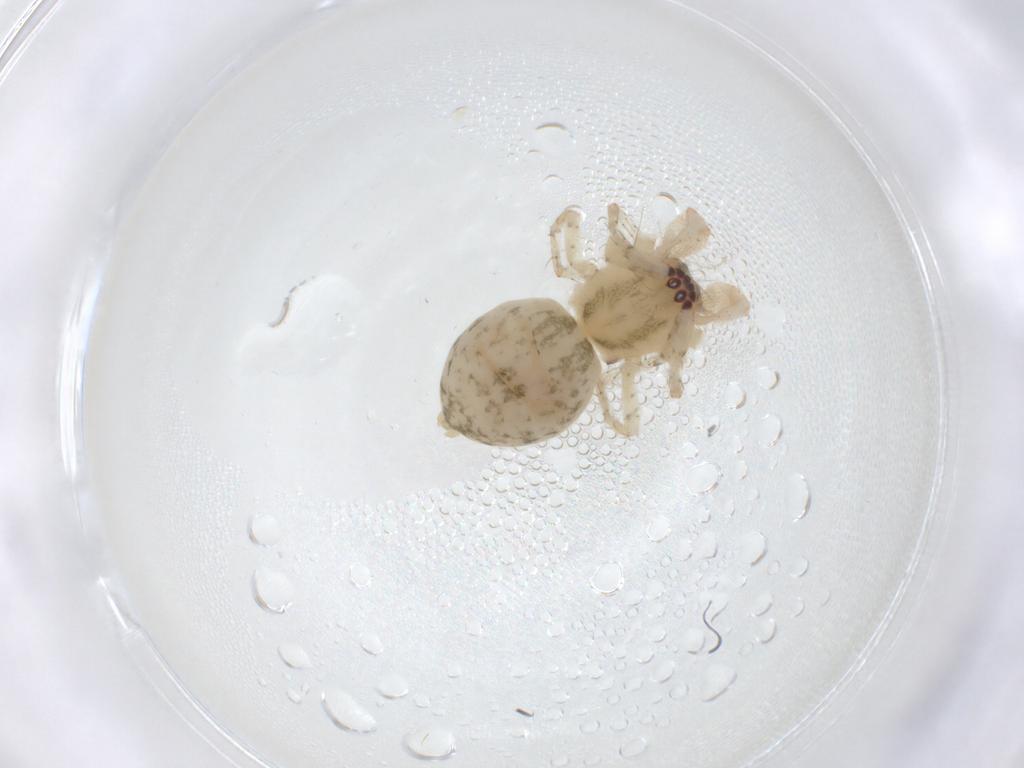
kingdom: Animalia
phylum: Arthropoda
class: Arachnida
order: Araneae
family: Anyphaenidae
